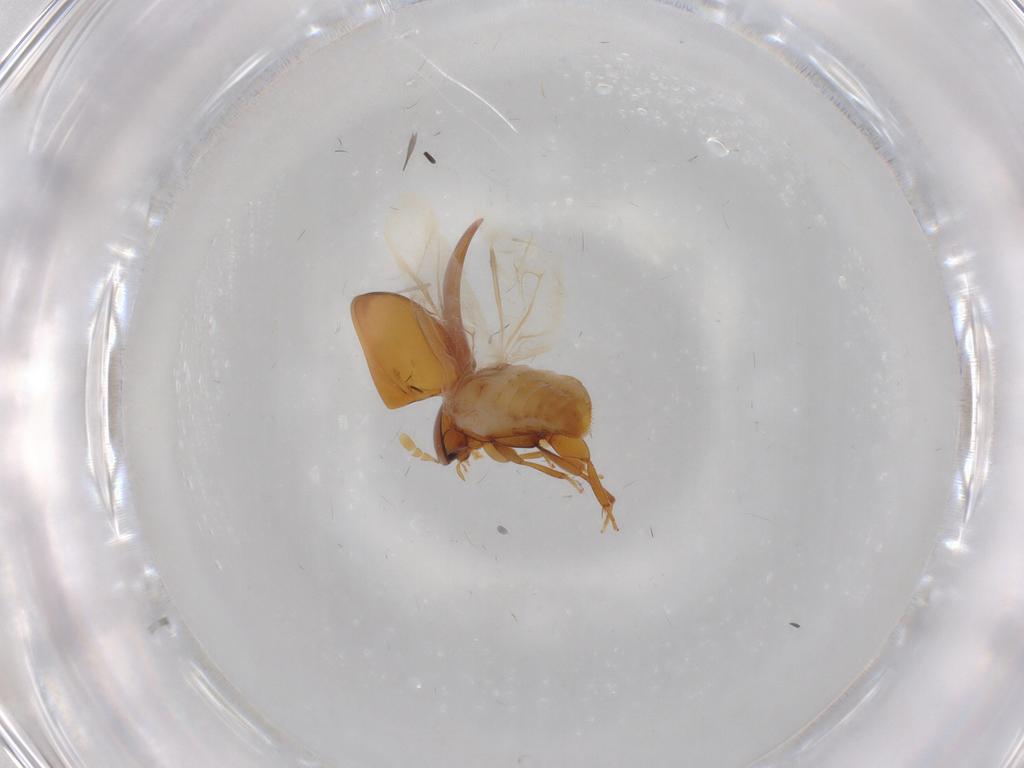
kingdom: Animalia
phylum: Arthropoda
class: Insecta
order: Coleoptera
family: Phalacridae
